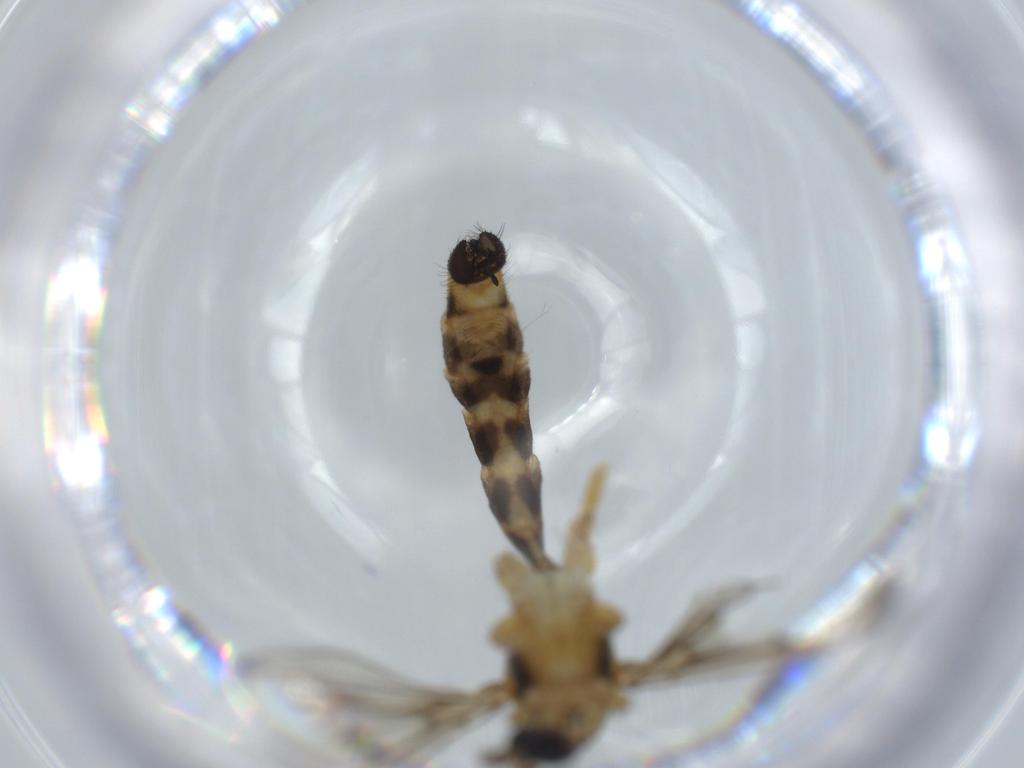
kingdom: Animalia
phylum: Arthropoda
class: Insecta
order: Diptera
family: Limoniidae
